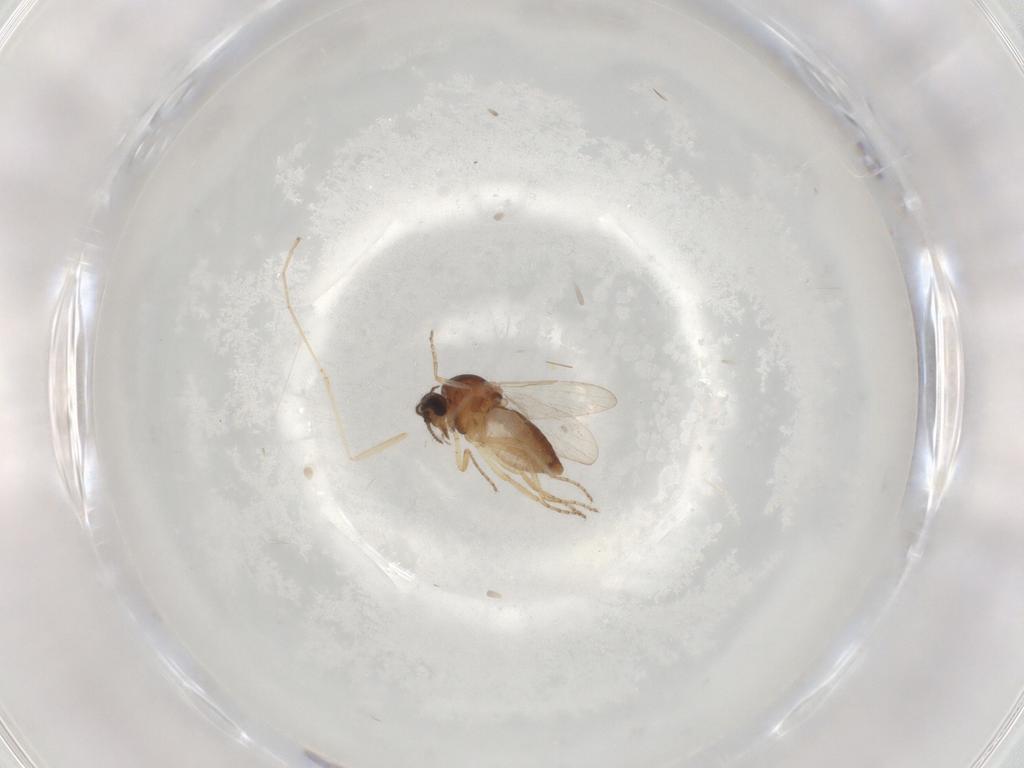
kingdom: Animalia
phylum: Arthropoda
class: Insecta
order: Diptera
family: Ceratopogonidae
